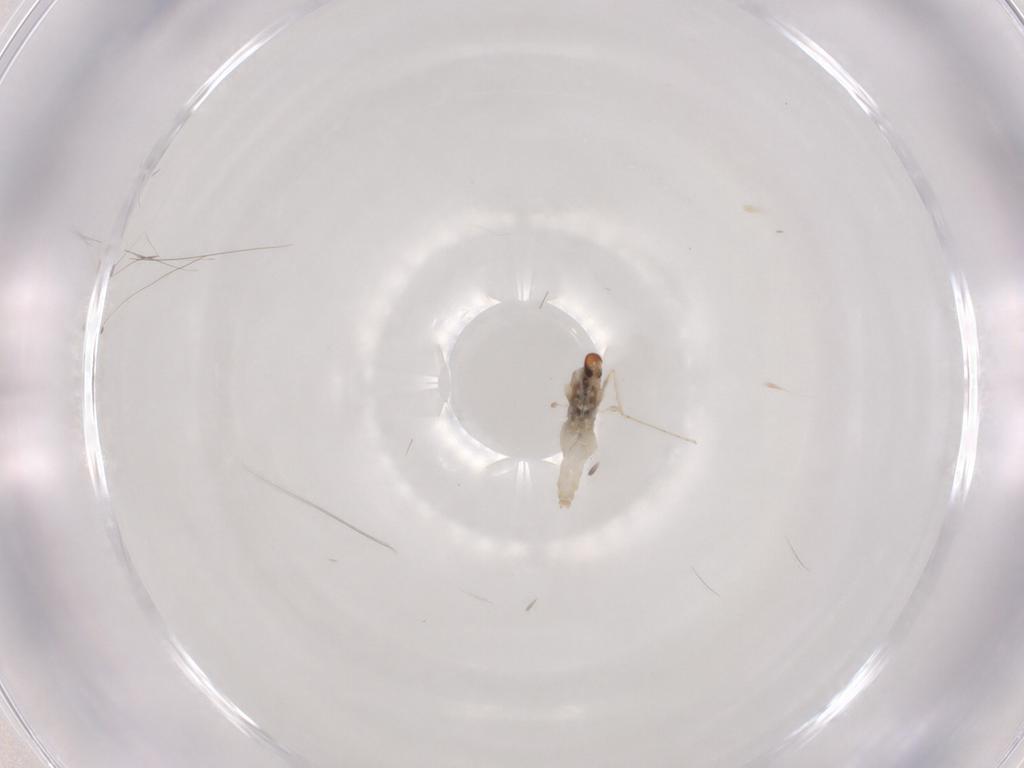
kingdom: Animalia
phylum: Arthropoda
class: Insecta
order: Diptera
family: Cecidomyiidae
